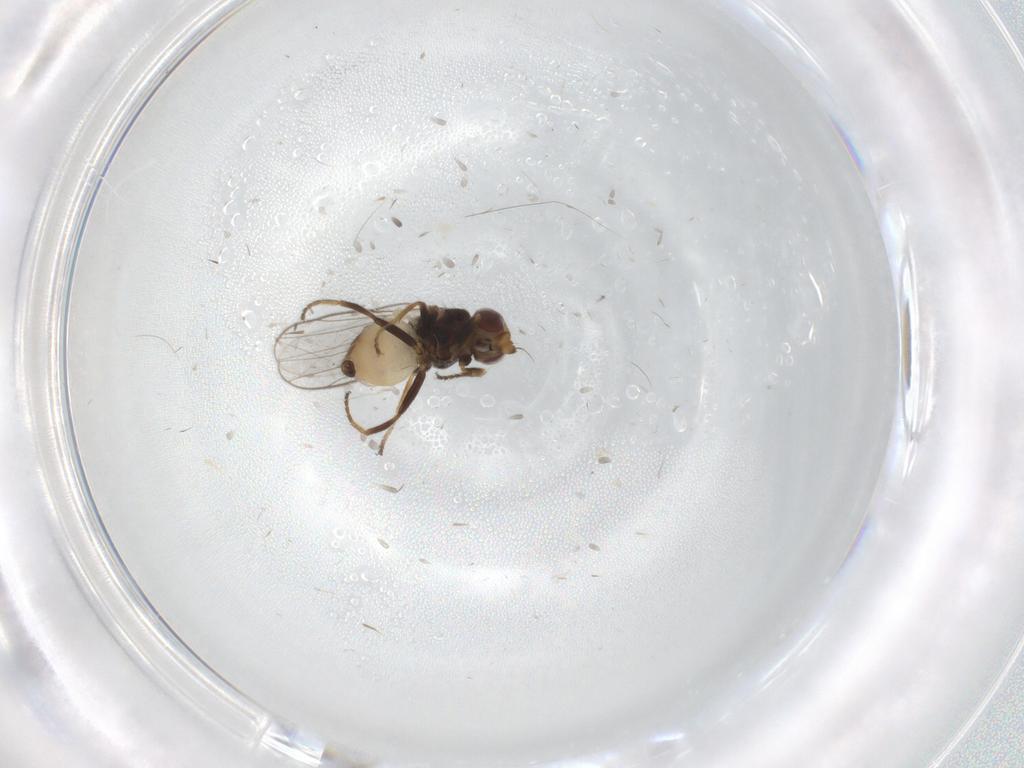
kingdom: Animalia
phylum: Arthropoda
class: Insecta
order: Diptera
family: Chloropidae
